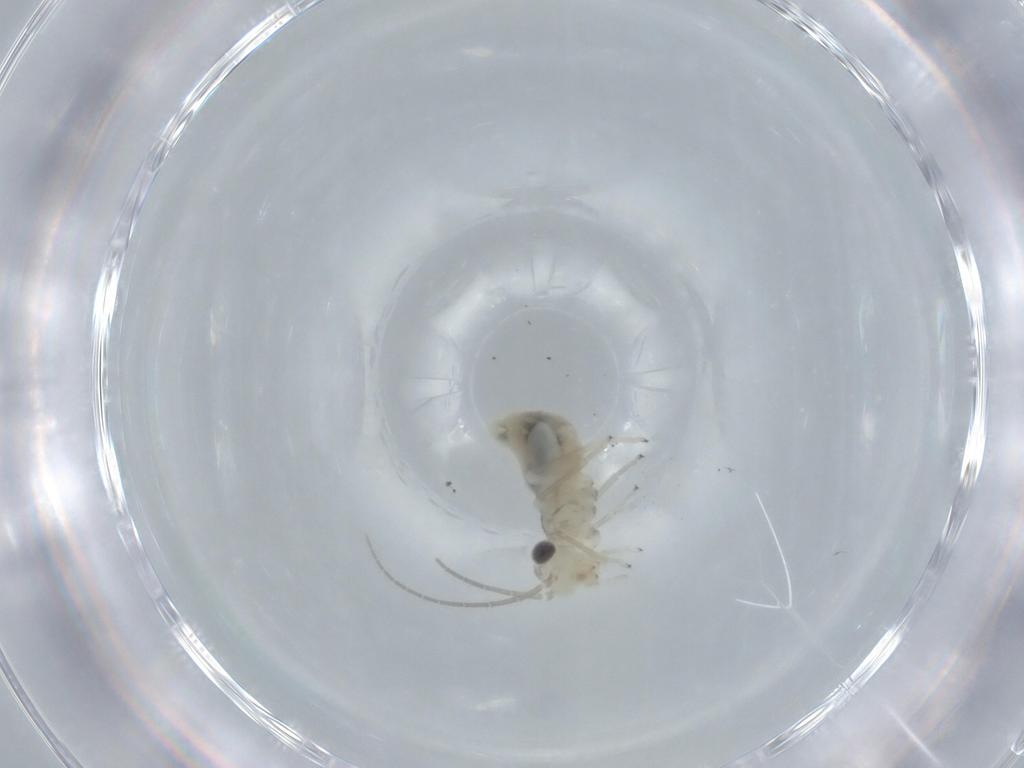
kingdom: Animalia
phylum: Arthropoda
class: Insecta
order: Psocodea
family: Caeciliusidae
